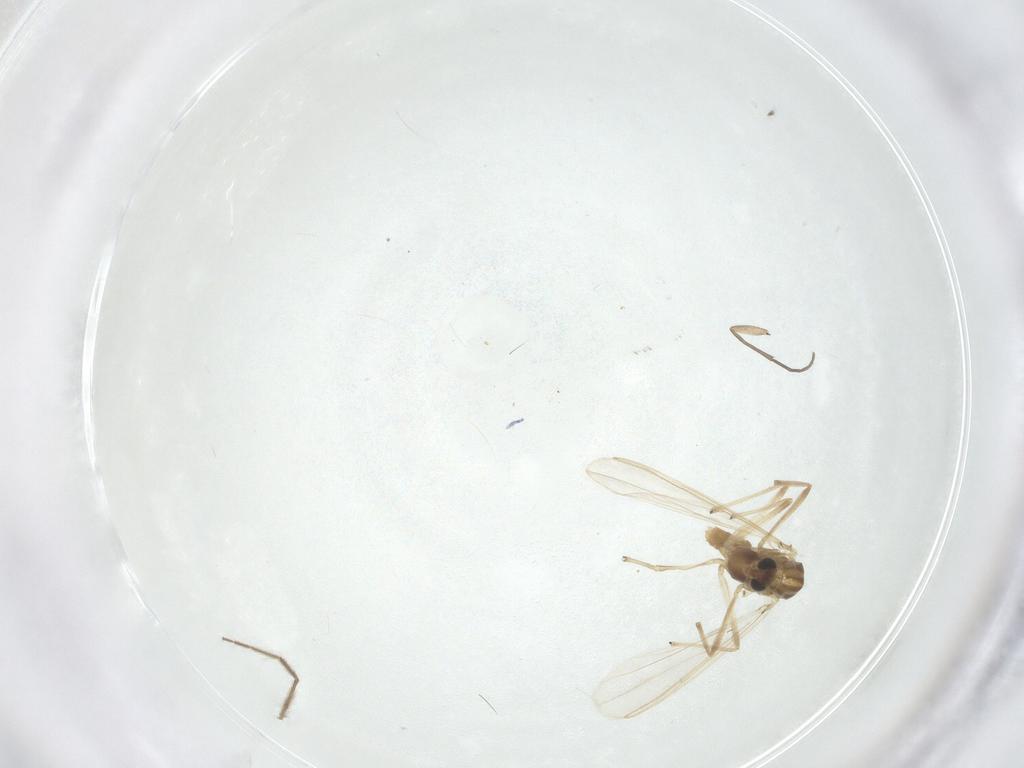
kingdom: Animalia
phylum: Arthropoda
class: Insecta
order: Diptera
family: Chironomidae
